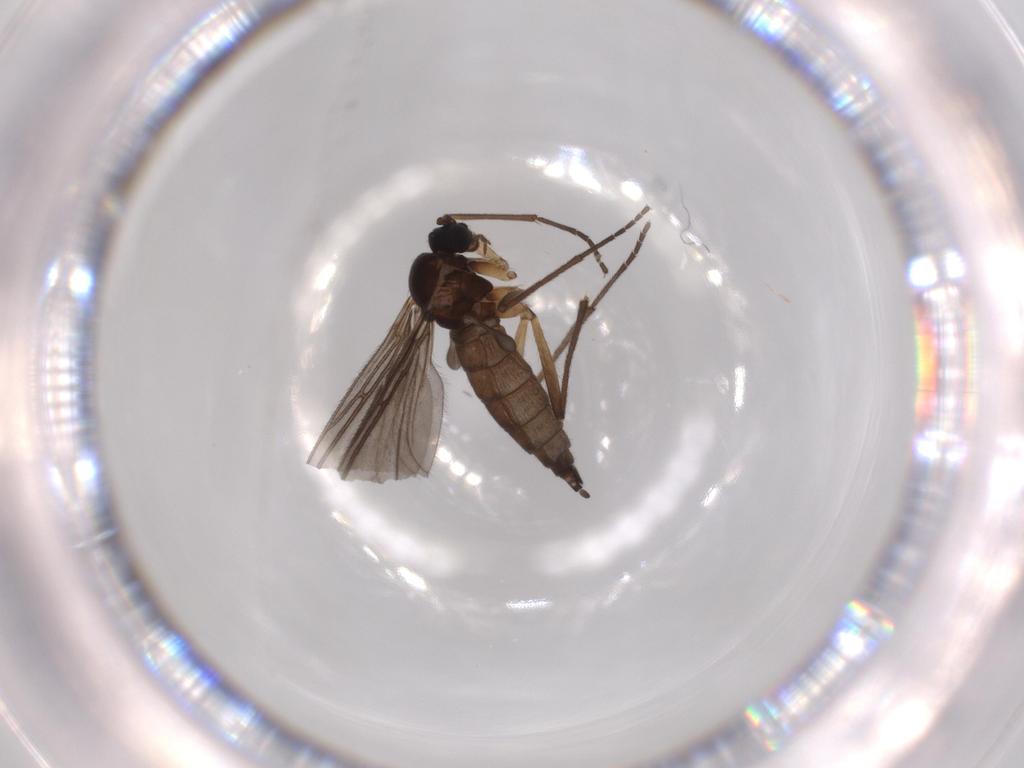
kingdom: Animalia
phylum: Arthropoda
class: Insecta
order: Diptera
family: Sciaridae
